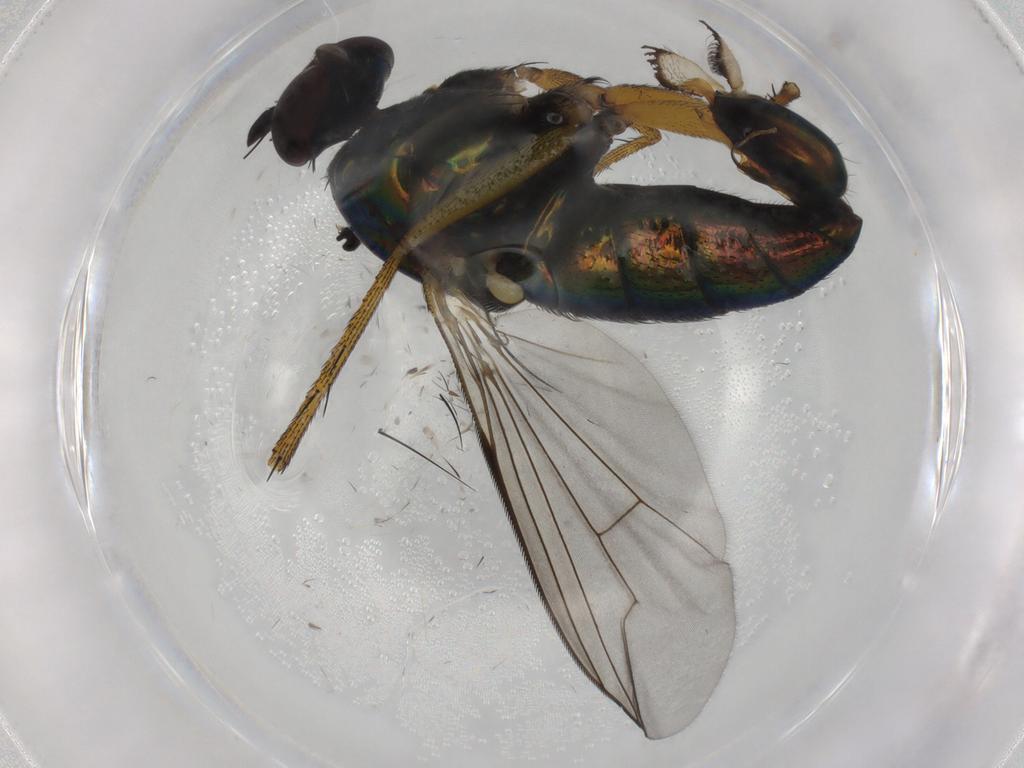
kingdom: Animalia
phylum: Arthropoda
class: Insecta
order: Diptera
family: Dolichopodidae
